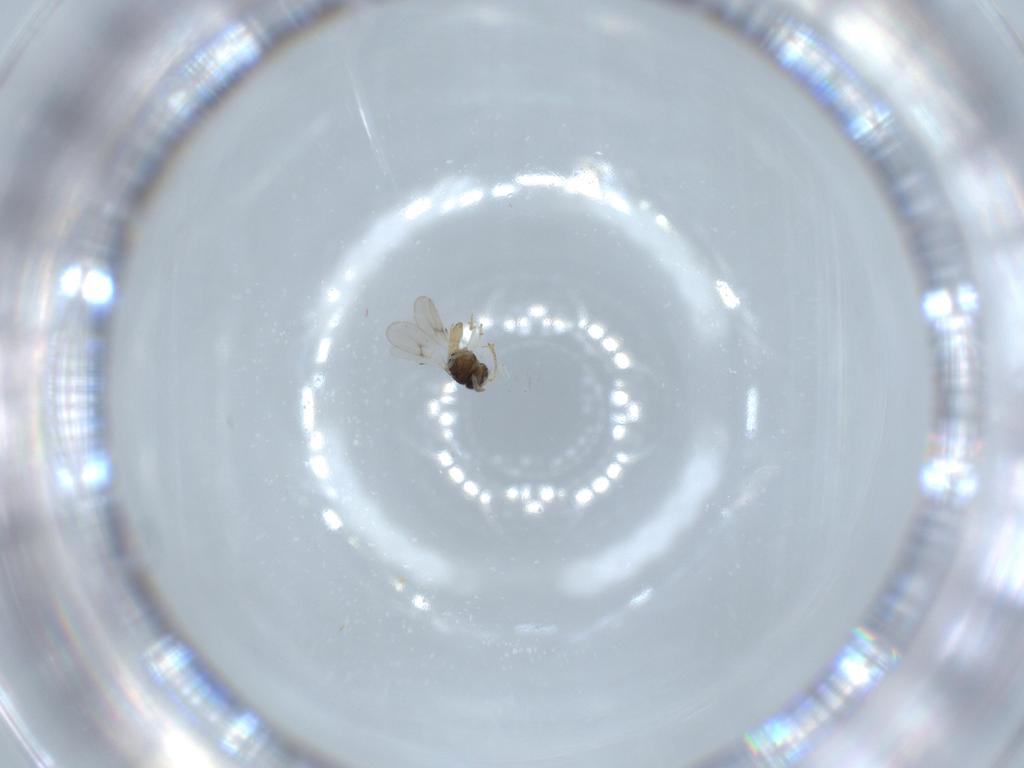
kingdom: Animalia
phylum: Arthropoda
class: Insecta
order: Hymenoptera
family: Scelionidae
